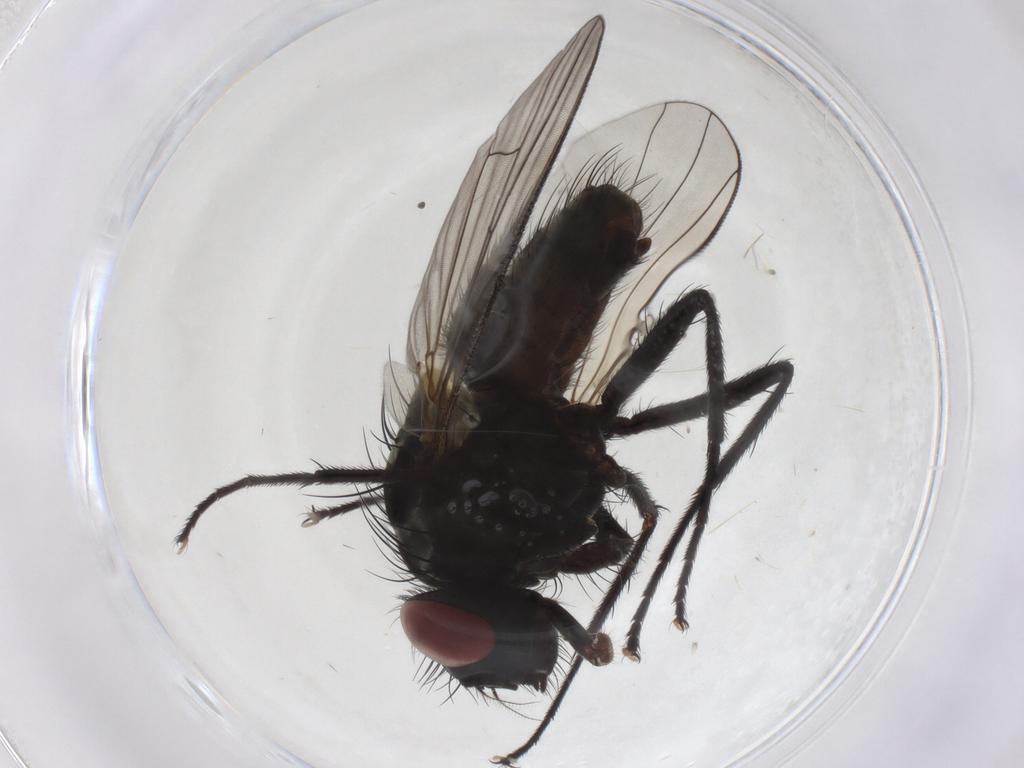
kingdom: Animalia
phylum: Arthropoda
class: Insecta
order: Diptera
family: Muscidae
